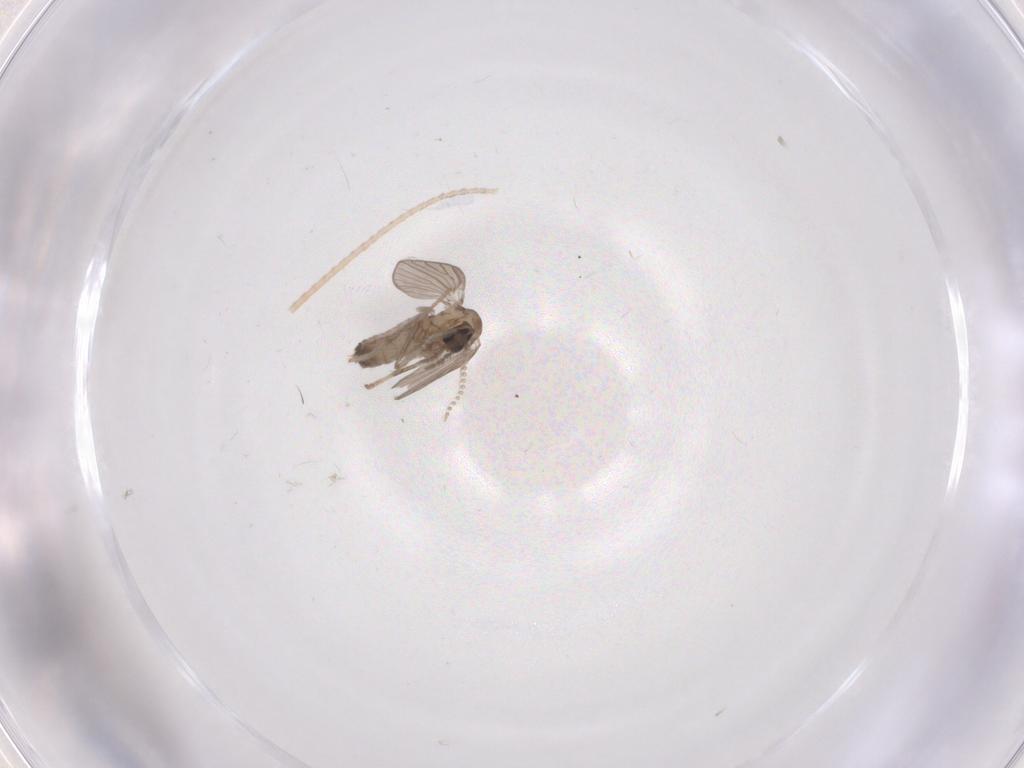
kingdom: Animalia
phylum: Arthropoda
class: Insecta
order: Diptera
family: Psychodidae
